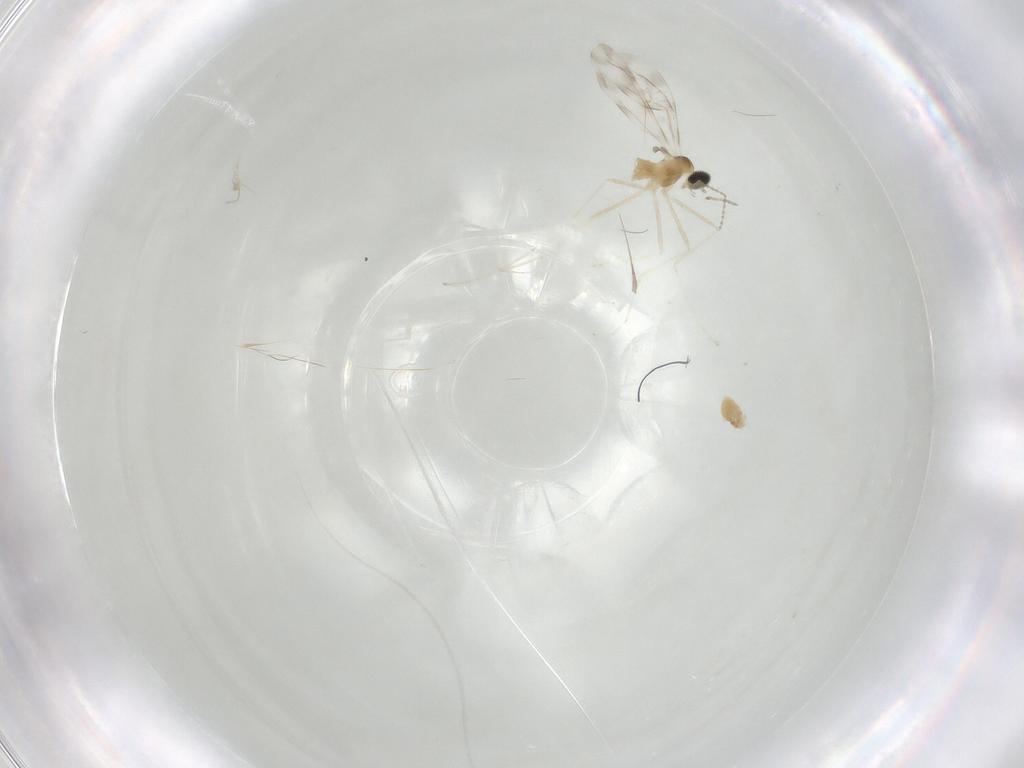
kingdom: Animalia
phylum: Arthropoda
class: Insecta
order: Diptera
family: Cecidomyiidae
